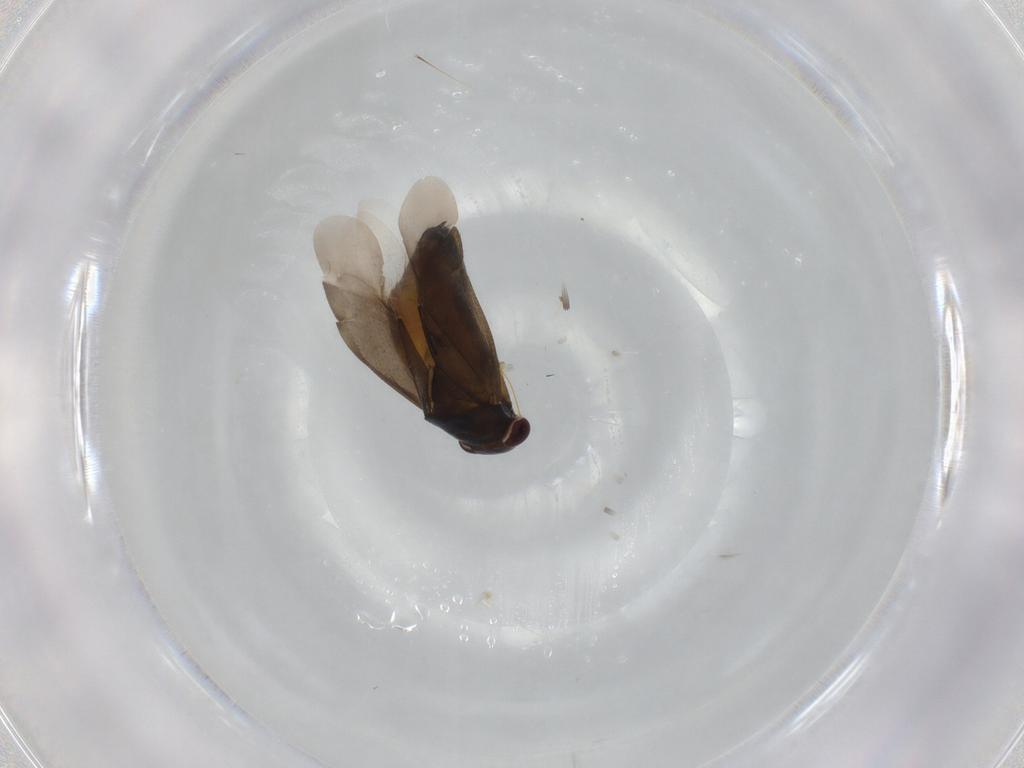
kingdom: Animalia
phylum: Arthropoda
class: Insecta
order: Hemiptera
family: Miridae
